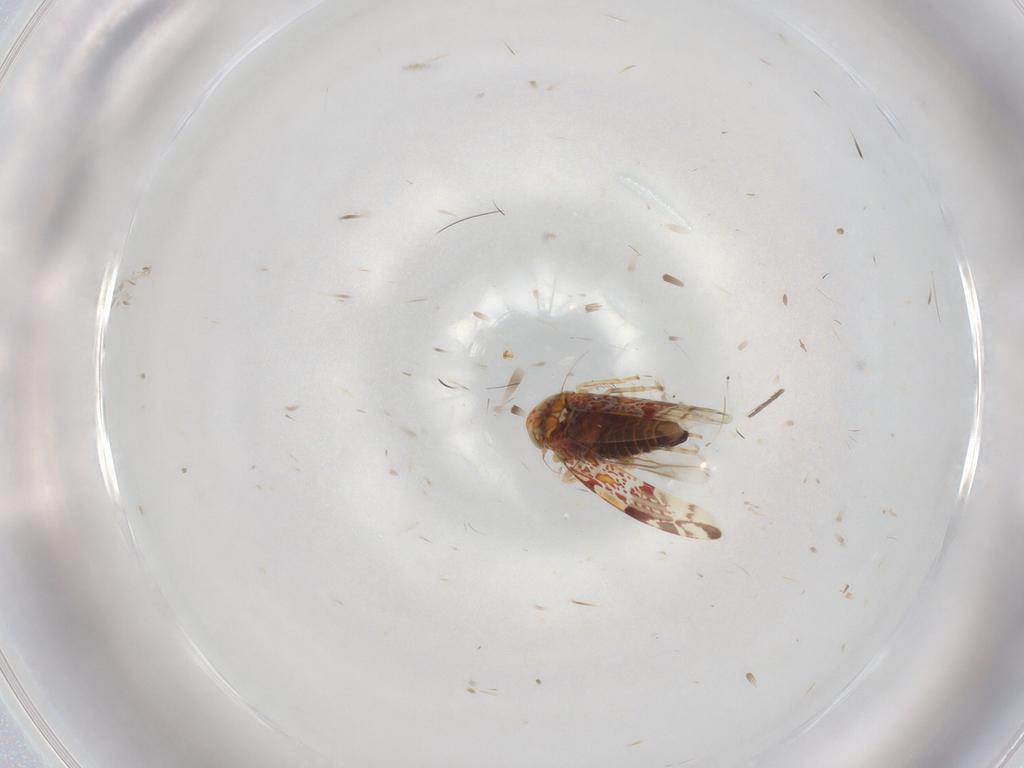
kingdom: Animalia
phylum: Arthropoda
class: Insecta
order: Hemiptera
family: Cicadellidae
